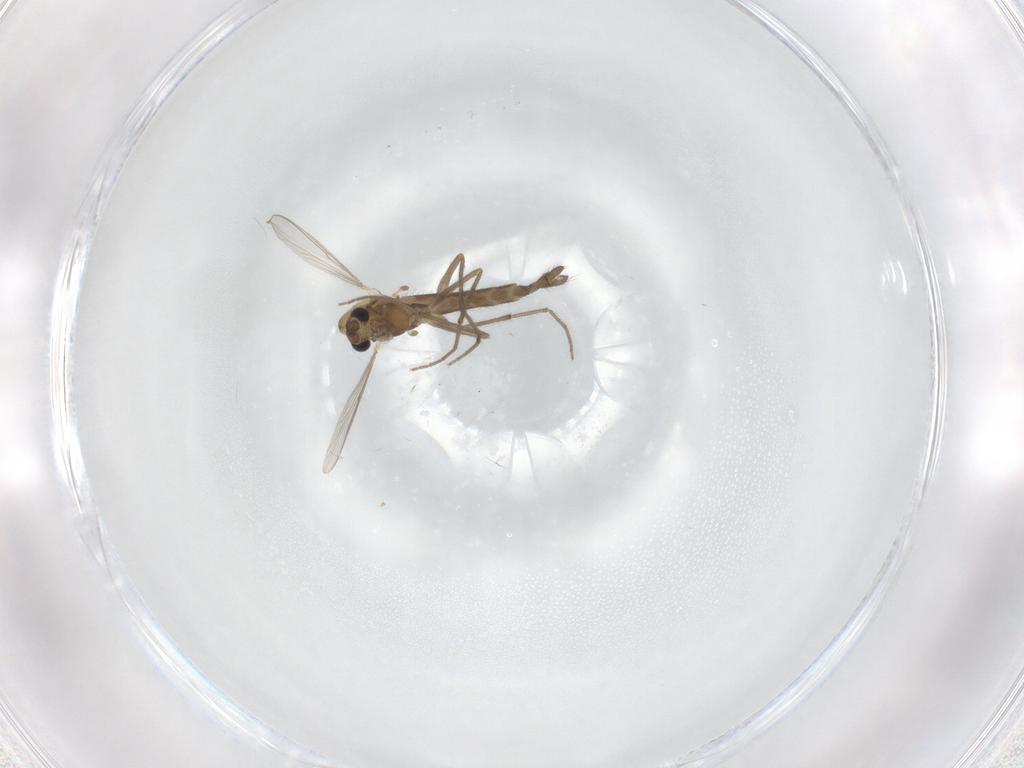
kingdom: Animalia
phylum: Arthropoda
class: Insecta
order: Diptera
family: Chironomidae
